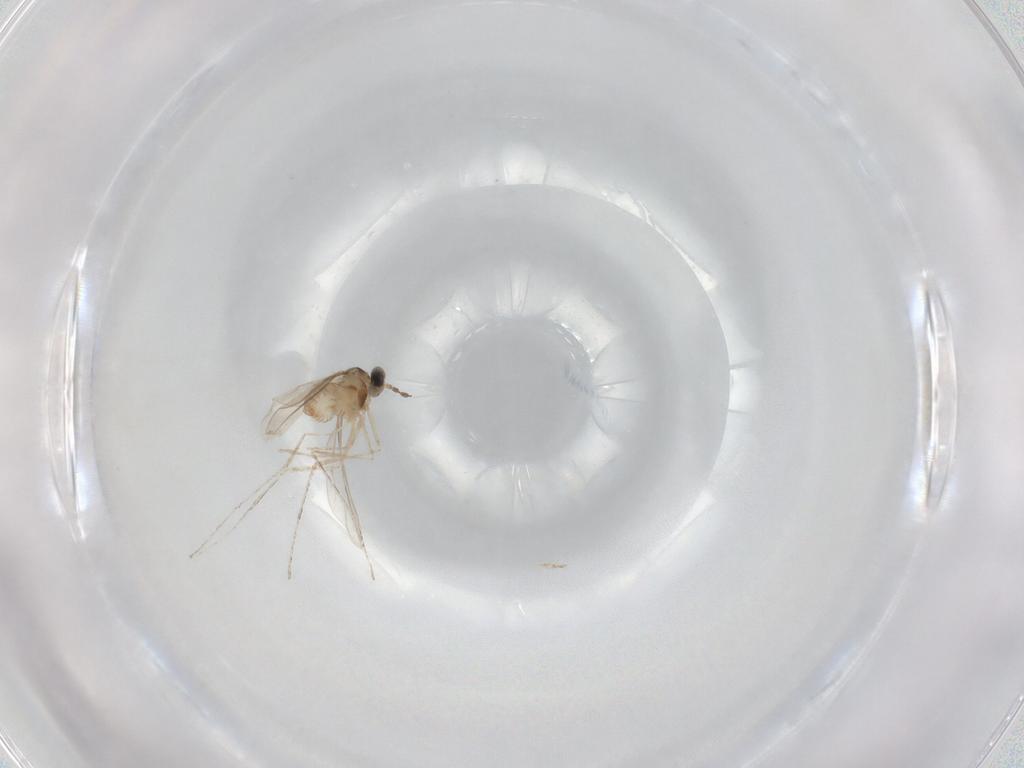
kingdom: Animalia
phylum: Arthropoda
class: Insecta
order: Diptera
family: Cecidomyiidae
